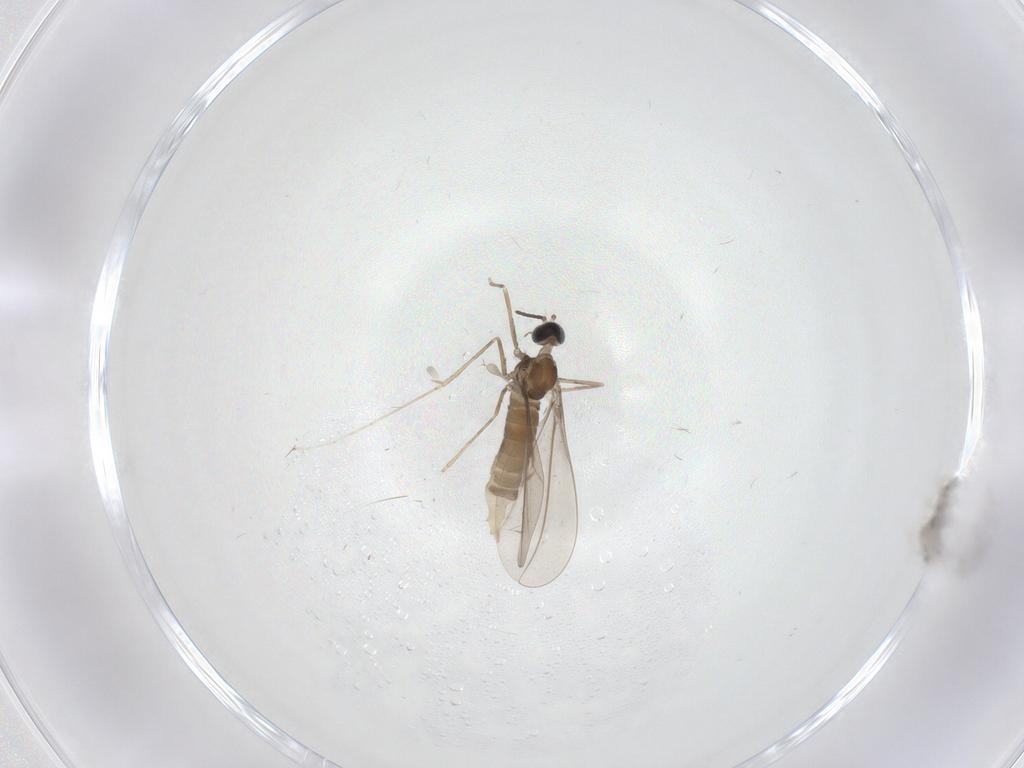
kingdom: Animalia
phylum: Arthropoda
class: Insecta
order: Diptera
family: Ceratopogonidae
